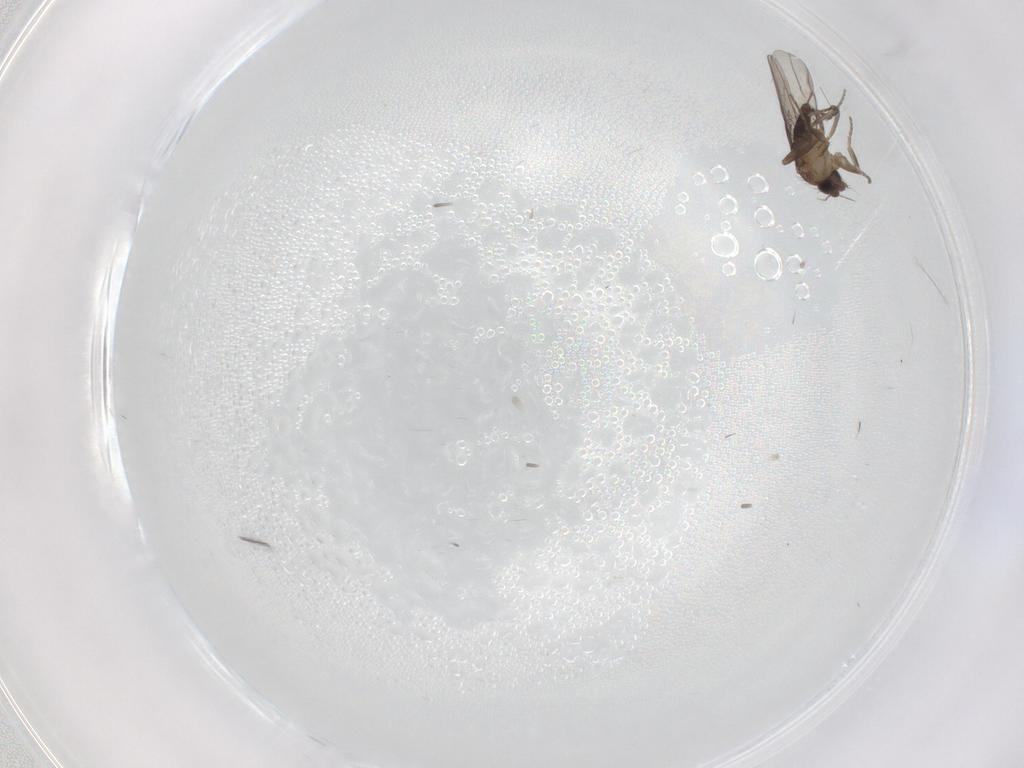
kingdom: Animalia
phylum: Arthropoda
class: Insecta
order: Diptera
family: Phoridae
